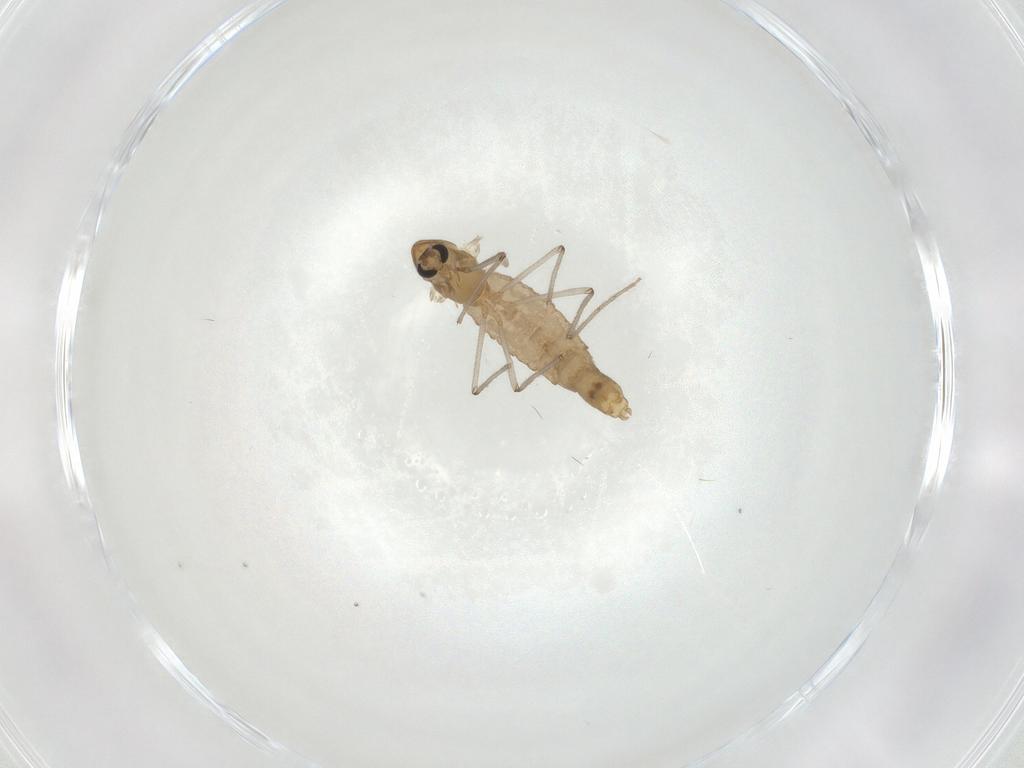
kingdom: Animalia
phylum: Arthropoda
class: Insecta
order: Diptera
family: Chironomidae
